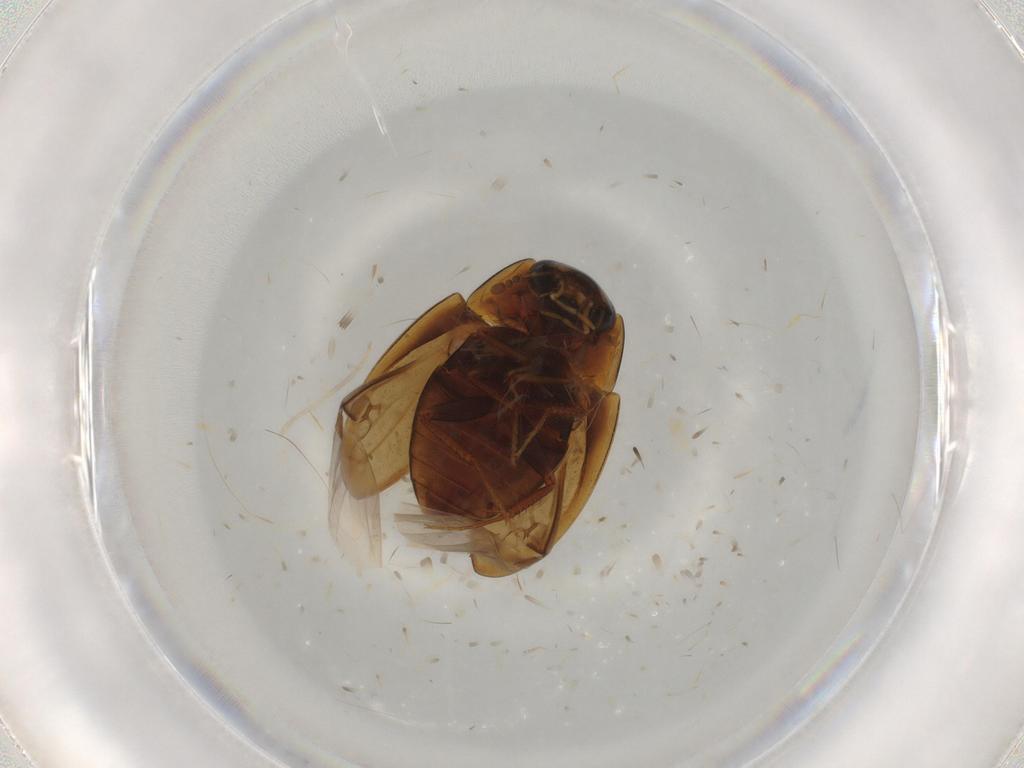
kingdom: Animalia
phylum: Arthropoda
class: Insecta
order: Coleoptera
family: Hydrophilidae
